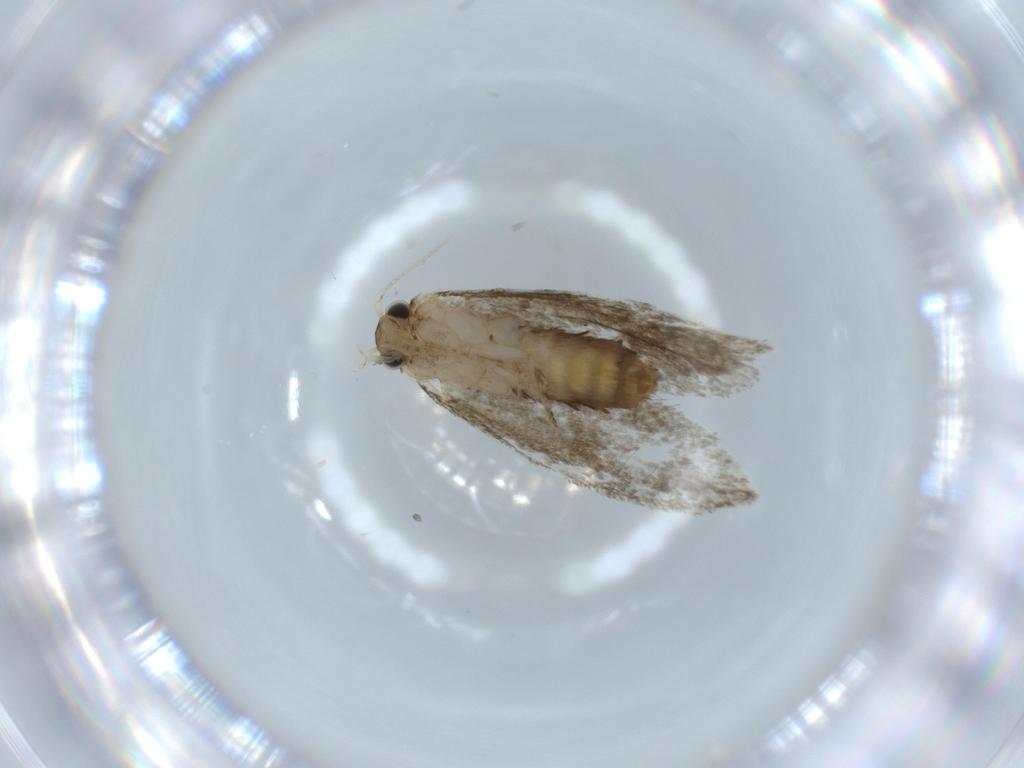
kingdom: Animalia
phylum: Arthropoda
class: Insecta
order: Lepidoptera
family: Tineidae
